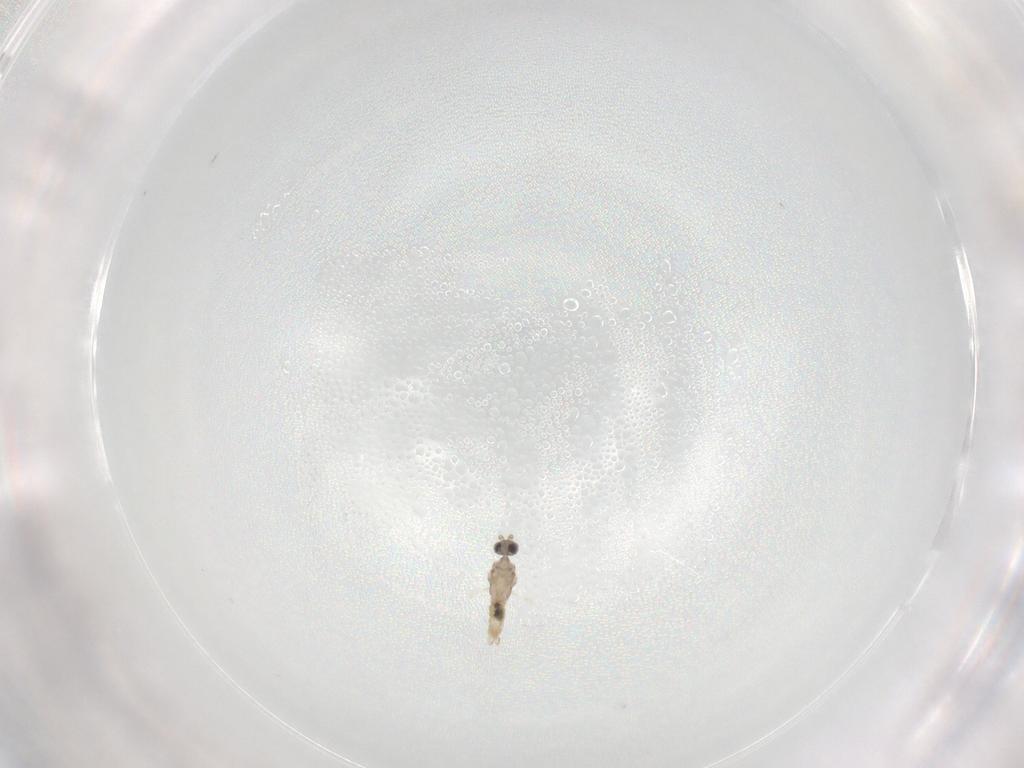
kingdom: Animalia
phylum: Arthropoda
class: Insecta
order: Diptera
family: Cecidomyiidae
